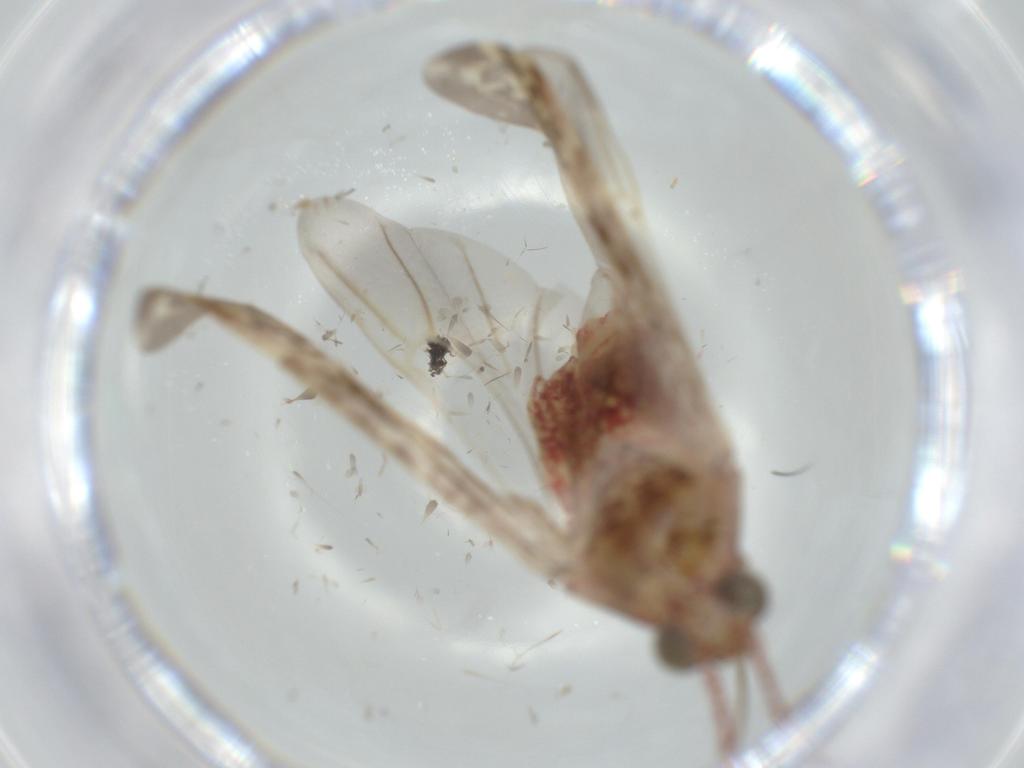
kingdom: Animalia
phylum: Arthropoda
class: Insecta
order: Hemiptera
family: Miridae
